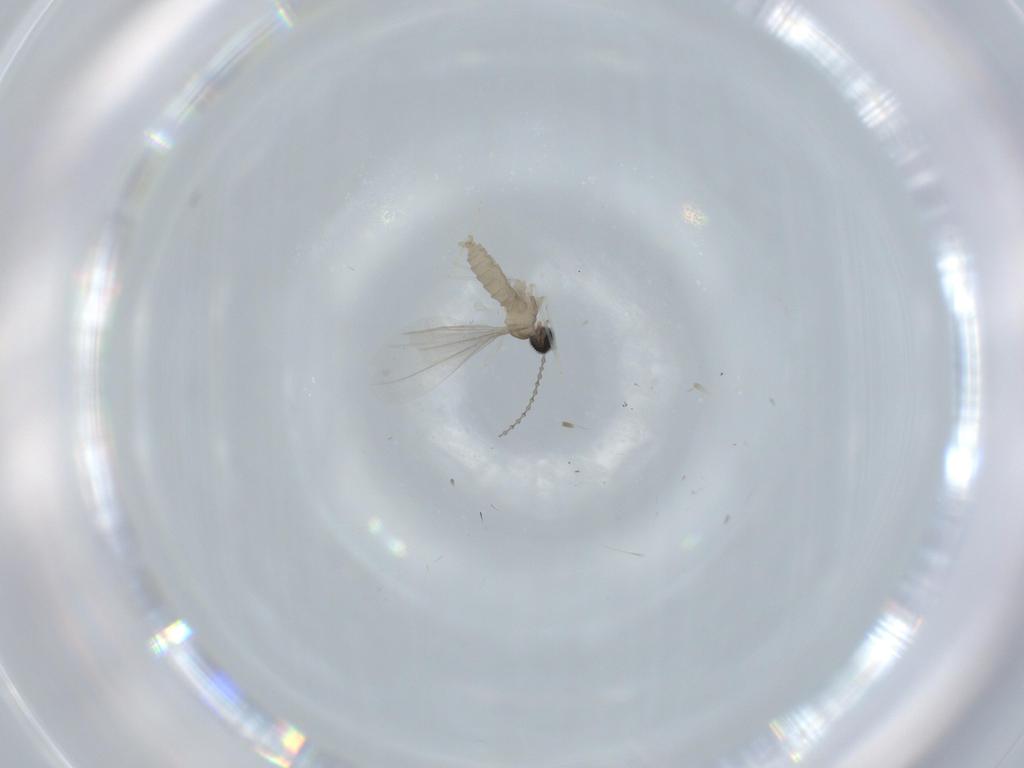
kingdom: Animalia
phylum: Arthropoda
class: Insecta
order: Diptera
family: Cecidomyiidae
